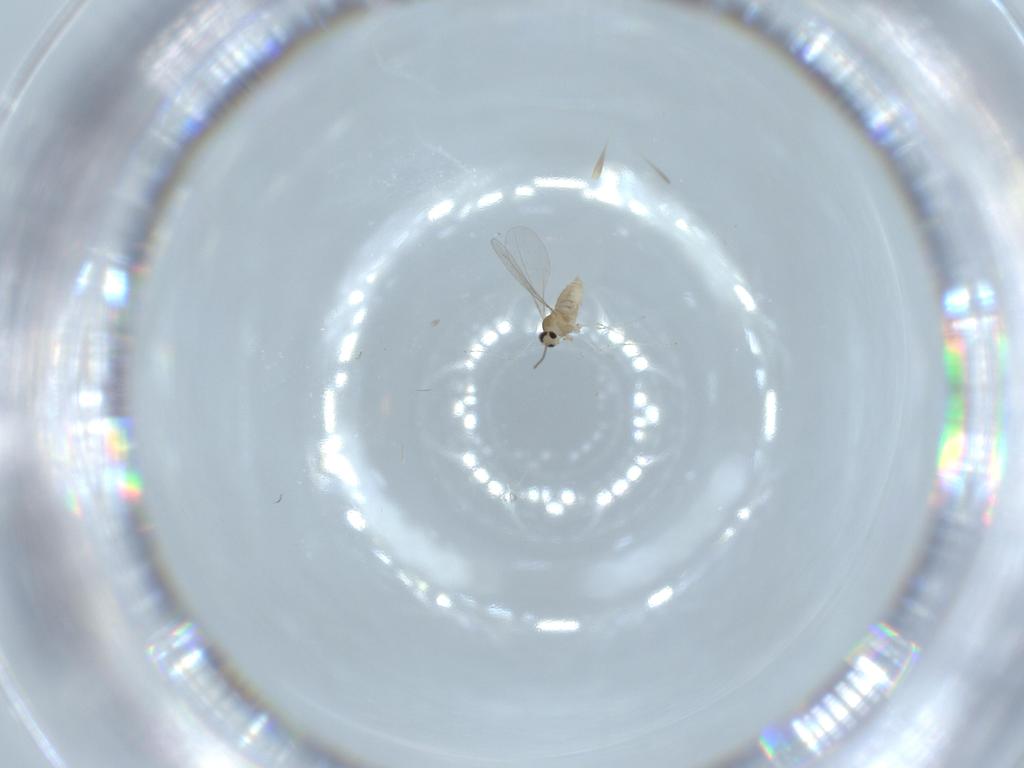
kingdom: Animalia
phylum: Arthropoda
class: Insecta
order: Diptera
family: Cecidomyiidae
